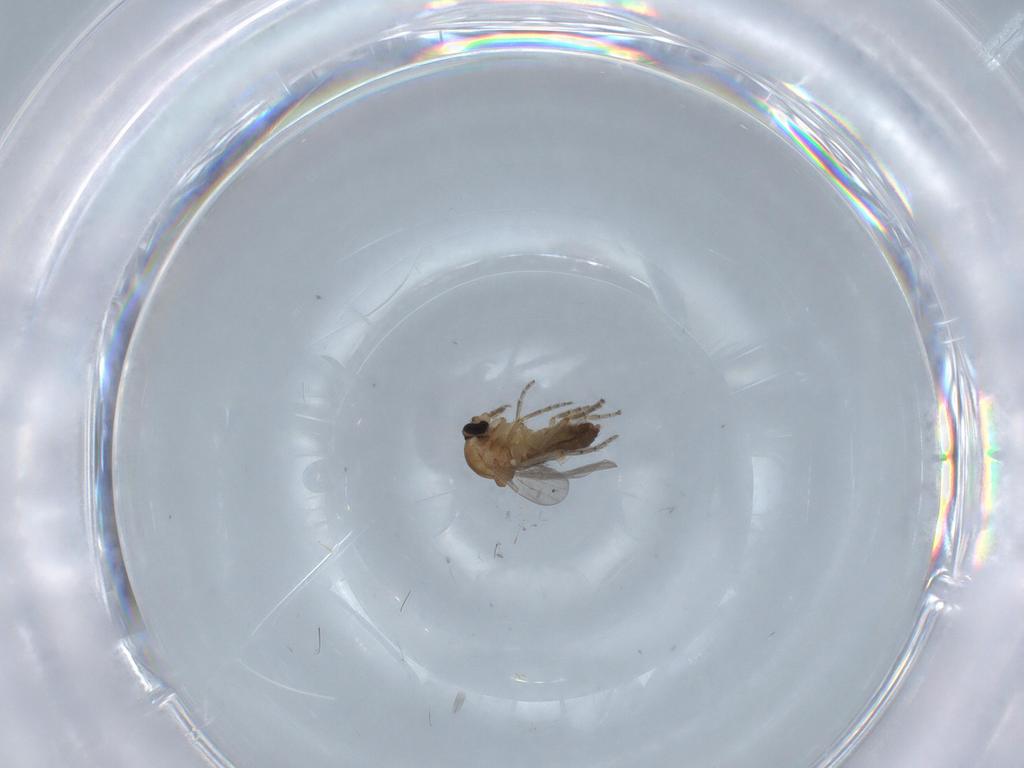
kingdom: Animalia
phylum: Arthropoda
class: Insecta
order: Diptera
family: Ceratopogonidae
